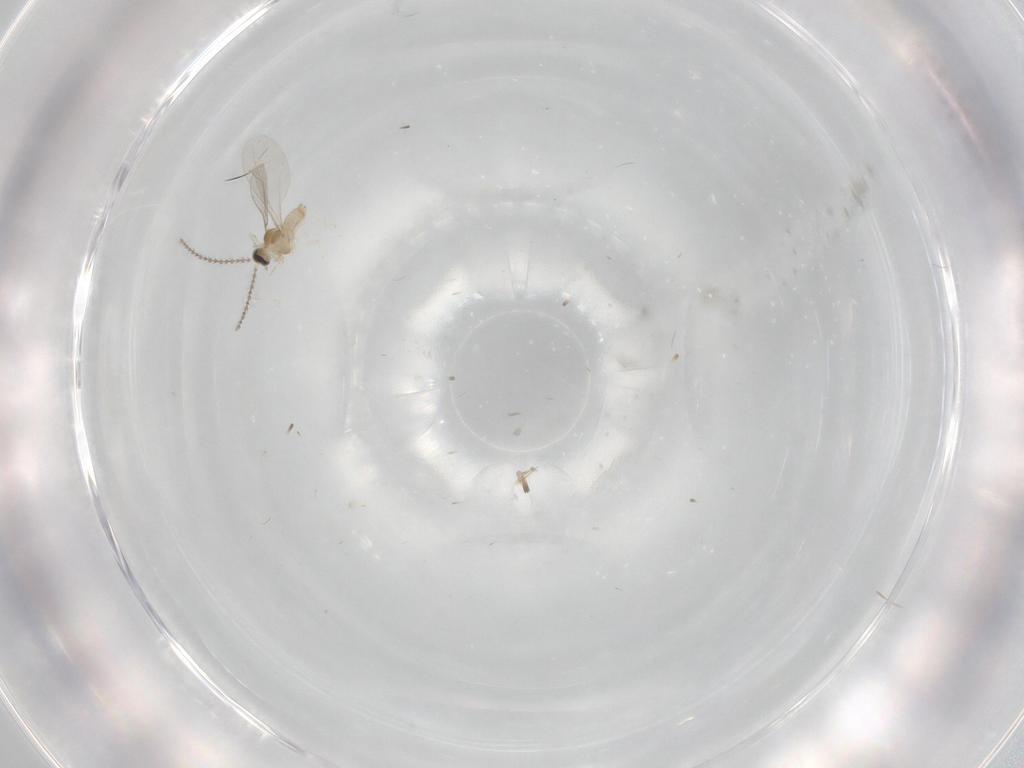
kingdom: Animalia
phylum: Arthropoda
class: Insecta
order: Diptera
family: Cecidomyiidae
